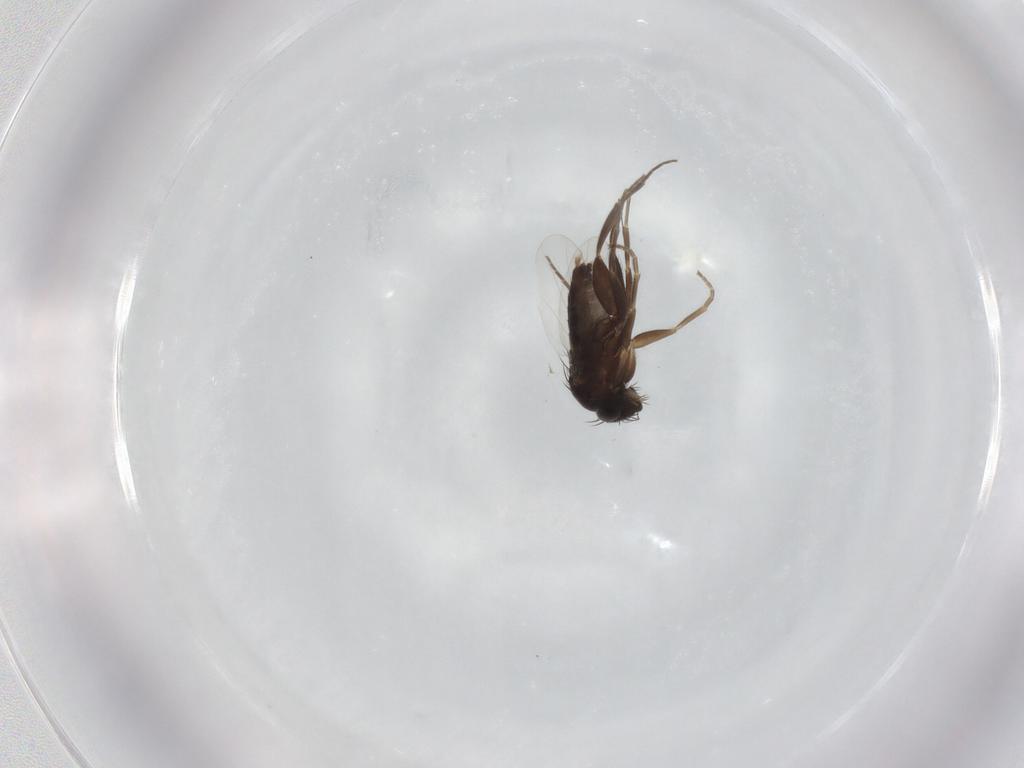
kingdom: Animalia
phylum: Arthropoda
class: Insecta
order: Diptera
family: Phoridae
